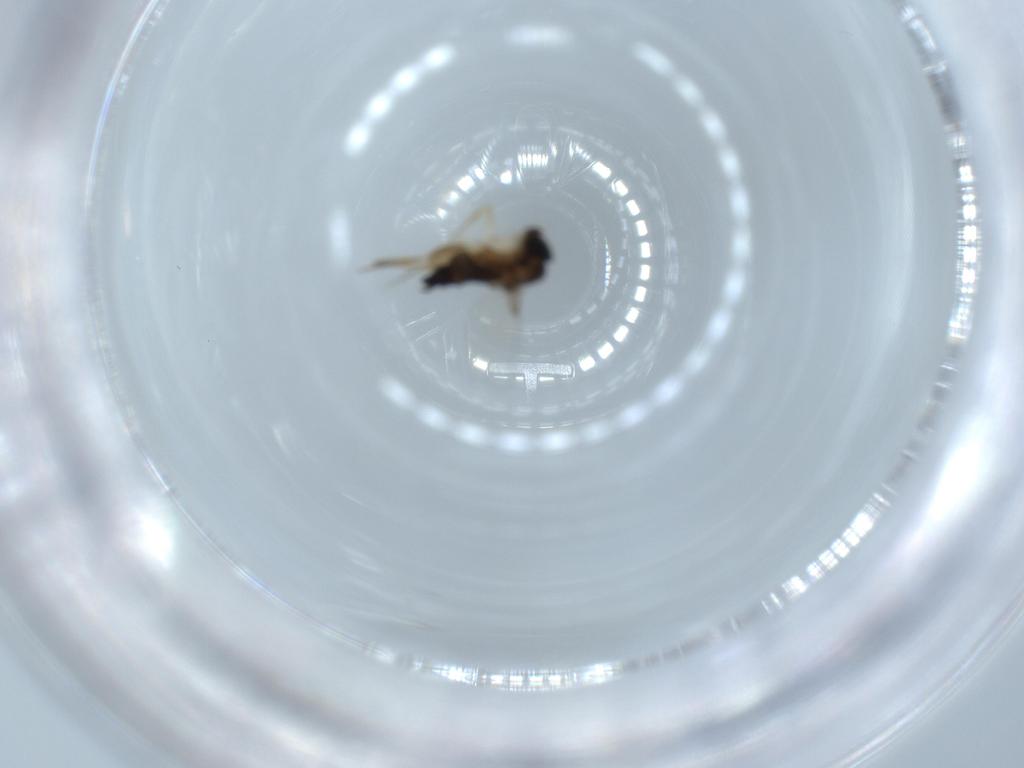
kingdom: Animalia
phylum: Arthropoda
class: Insecta
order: Diptera
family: Phoridae
